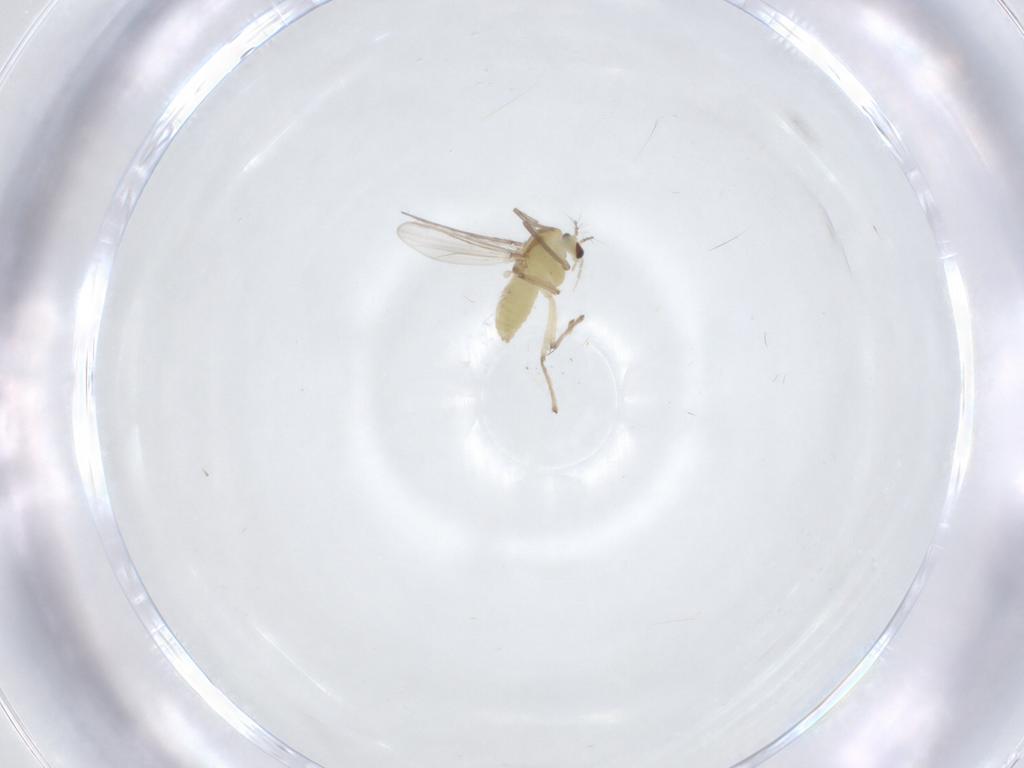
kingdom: Animalia
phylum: Arthropoda
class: Insecta
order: Diptera
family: Chironomidae
